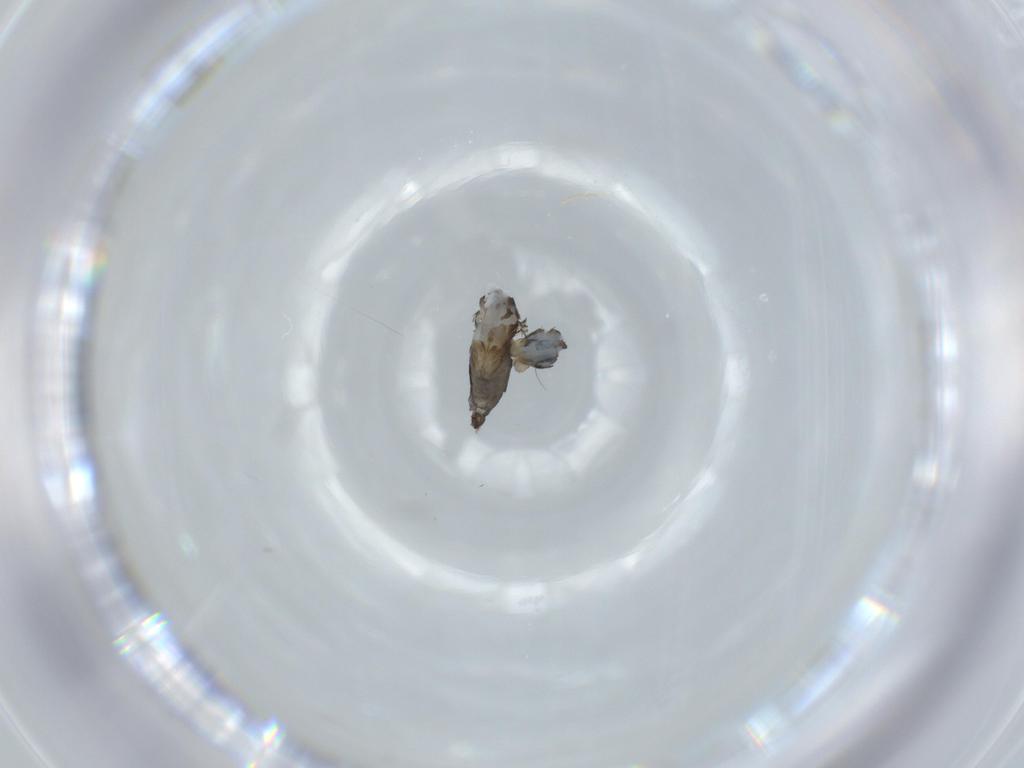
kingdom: Animalia
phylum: Arthropoda
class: Insecta
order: Diptera
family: Phoridae
